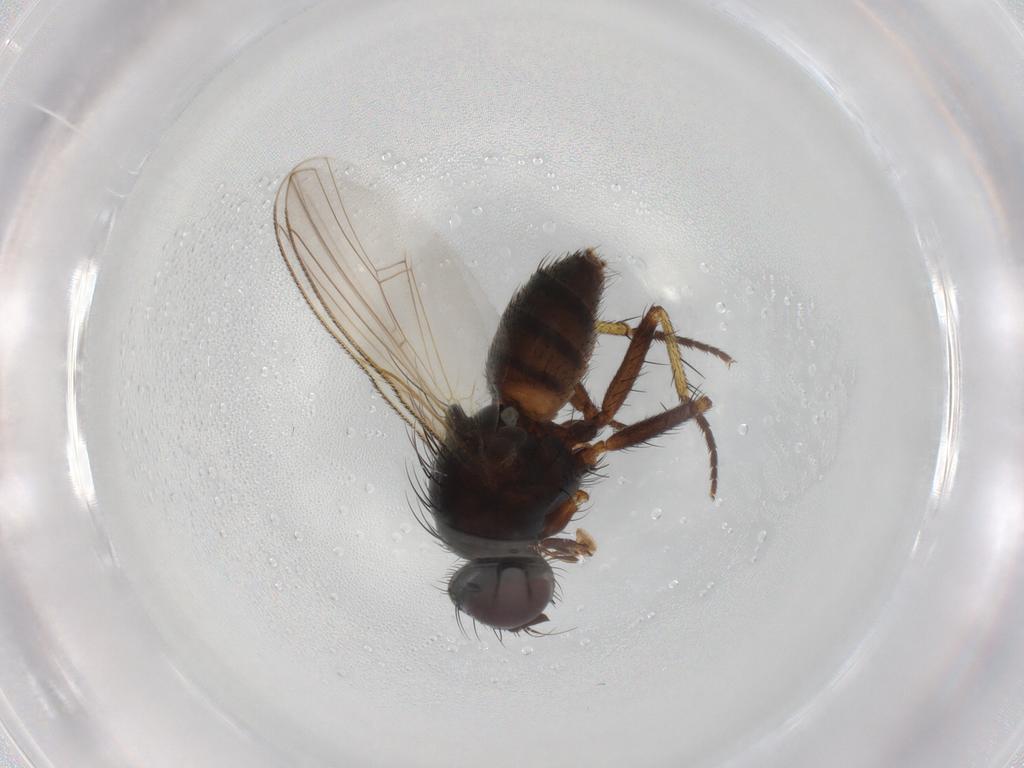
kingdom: Animalia
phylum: Arthropoda
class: Insecta
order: Diptera
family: Muscidae
